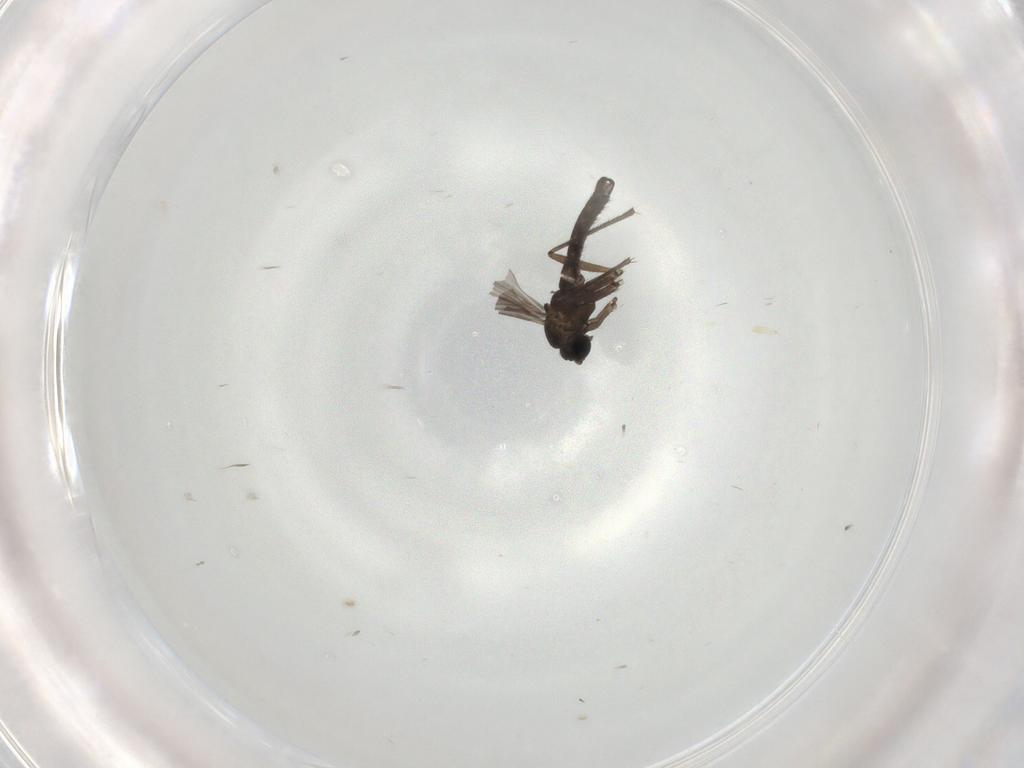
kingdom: Animalia
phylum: Arthropoda
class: Insecta
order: Diptera
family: Sciaridae
